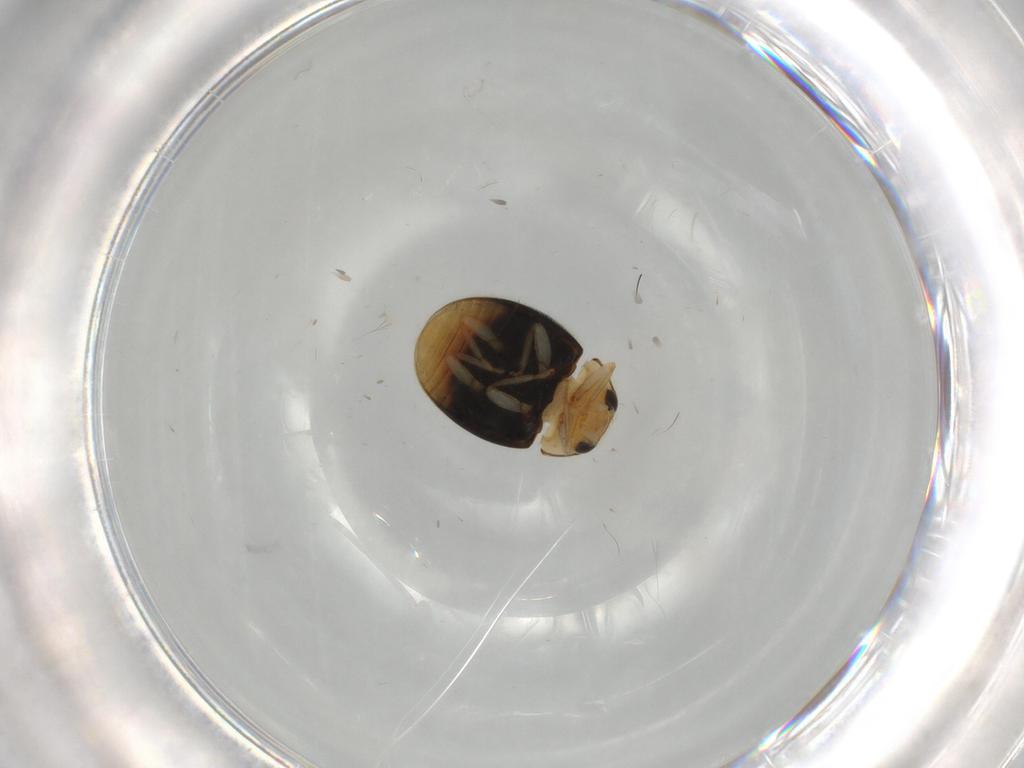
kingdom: Animalia
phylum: Arthropoda
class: Insecta
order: Coleoptera
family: Coccinellidae
